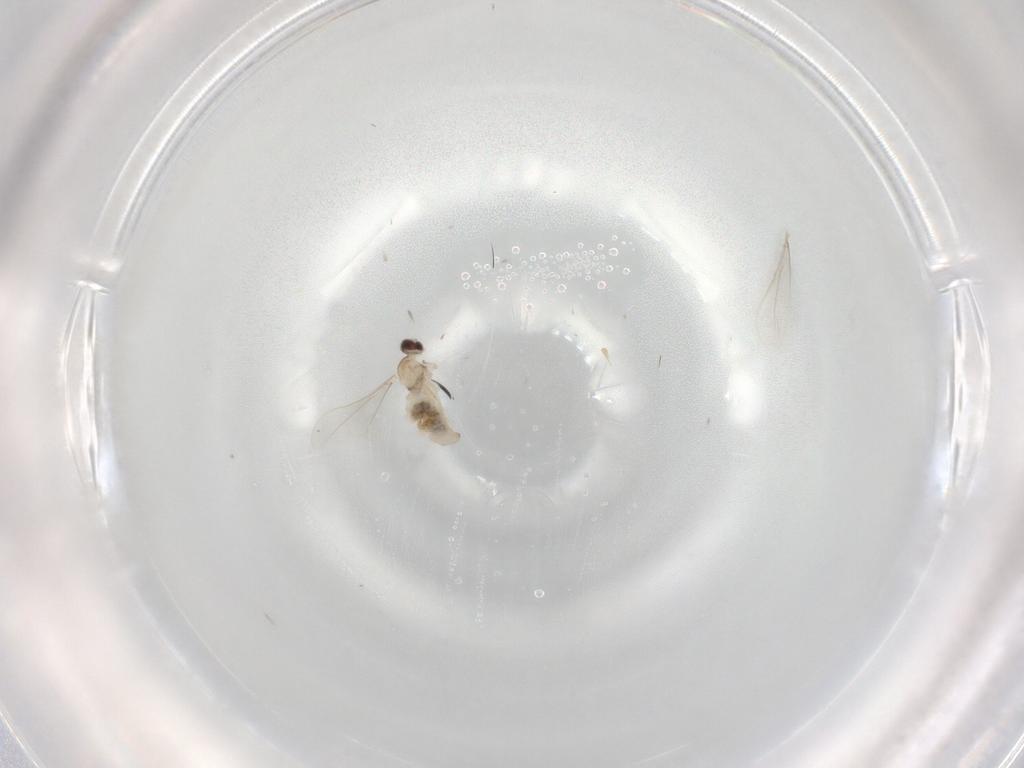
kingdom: Animalia
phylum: Arthropoda
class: Insecta
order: Diptera
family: Cecidomyiidae
